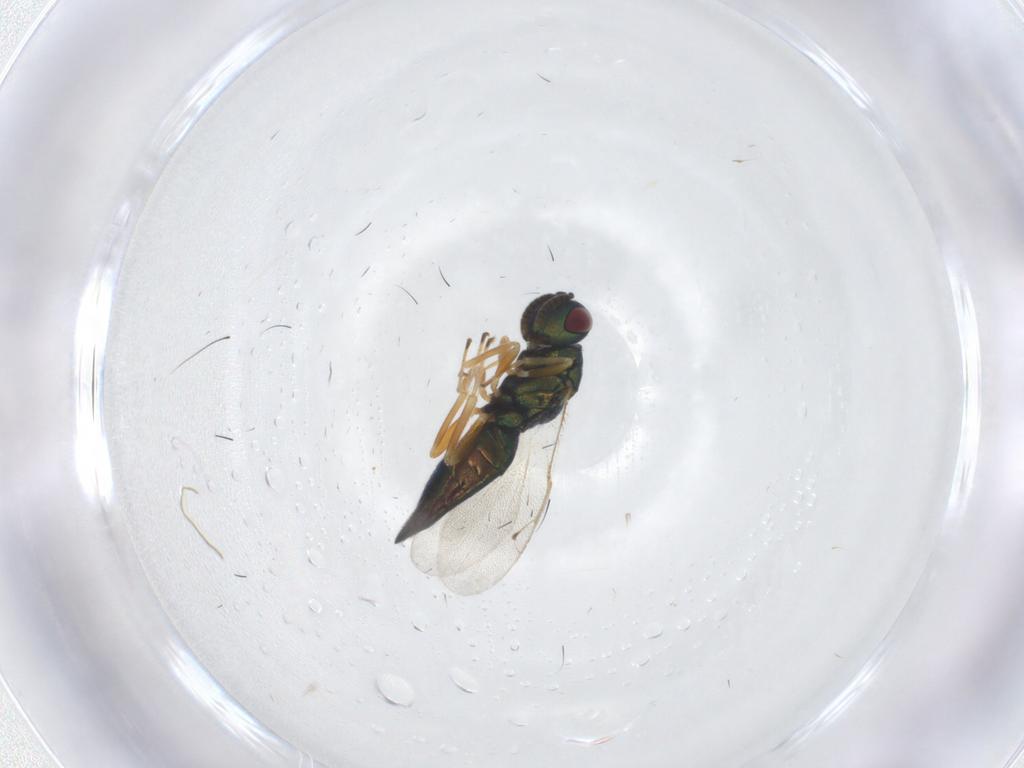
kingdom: Animalia
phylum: Arthropoda
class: Insecta
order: Hymenoptera
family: Pteromalidae
